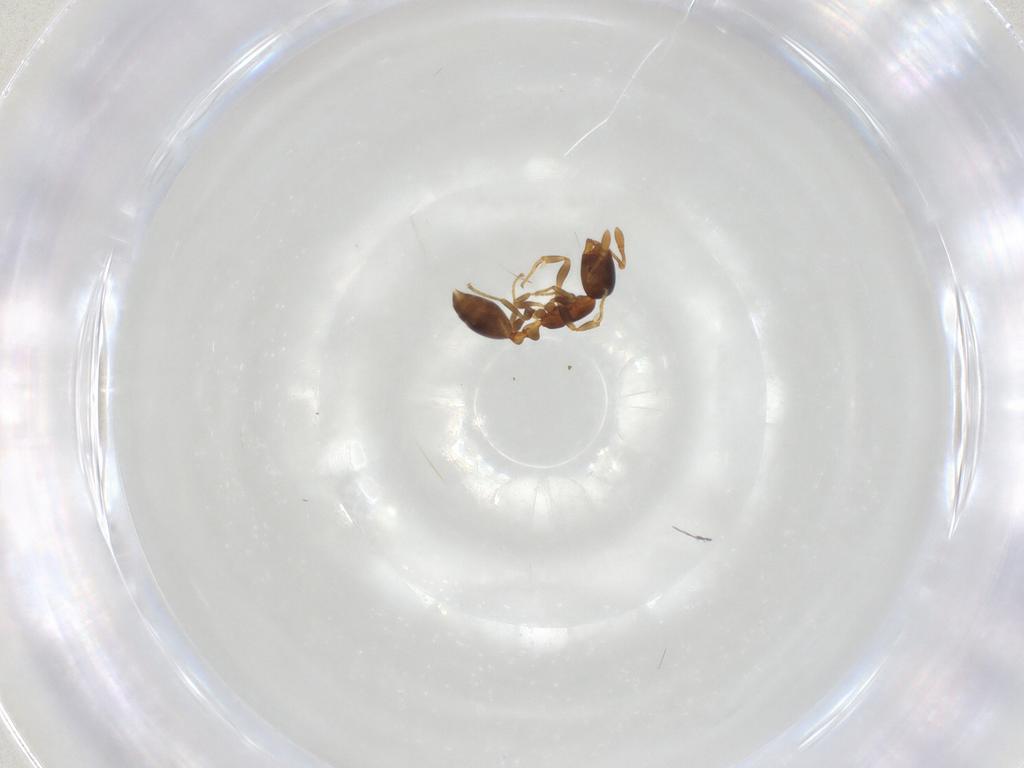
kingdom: Animalia
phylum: Arthropoda
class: Insecta
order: Hymenoptera
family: Formicidae
